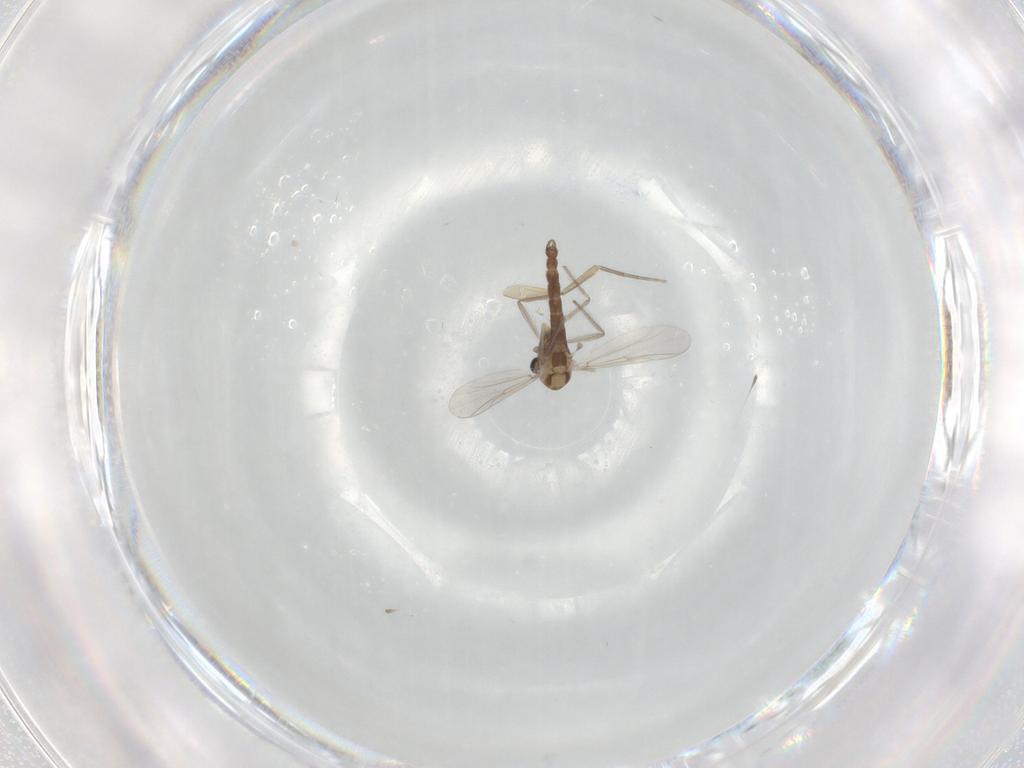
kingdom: Animalia
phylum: Arthropoda
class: Insecta
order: Diptera
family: Chironomidae
